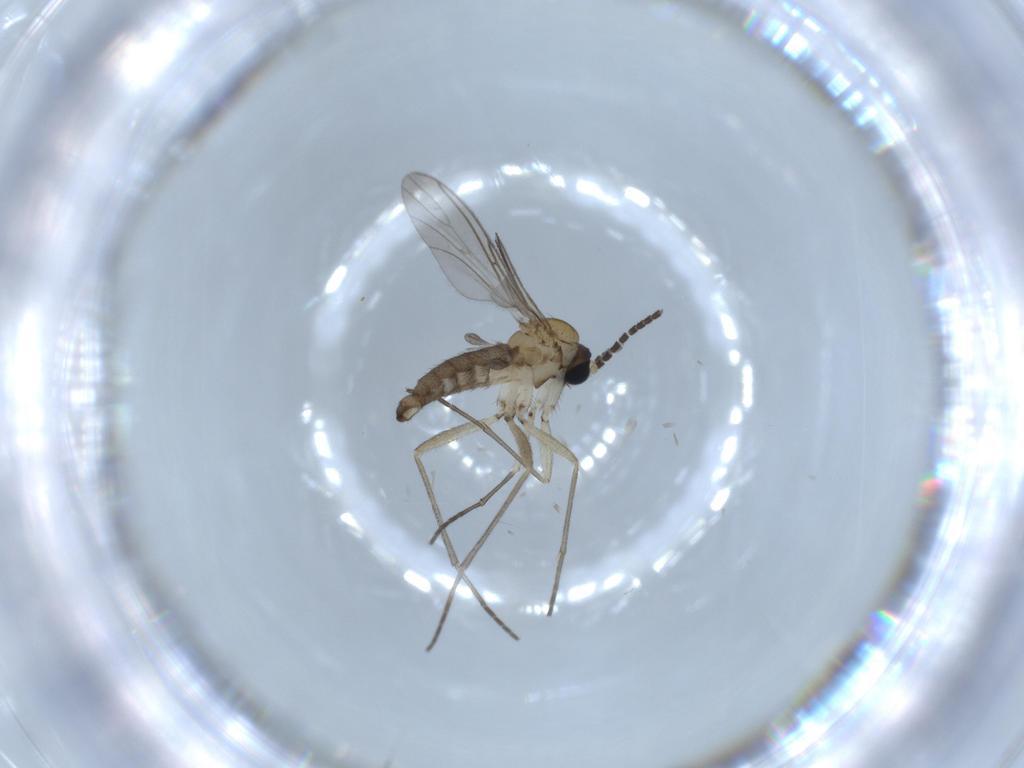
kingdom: Animalia
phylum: Arthropoda
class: Insecta
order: Diptera
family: Sciaridae
